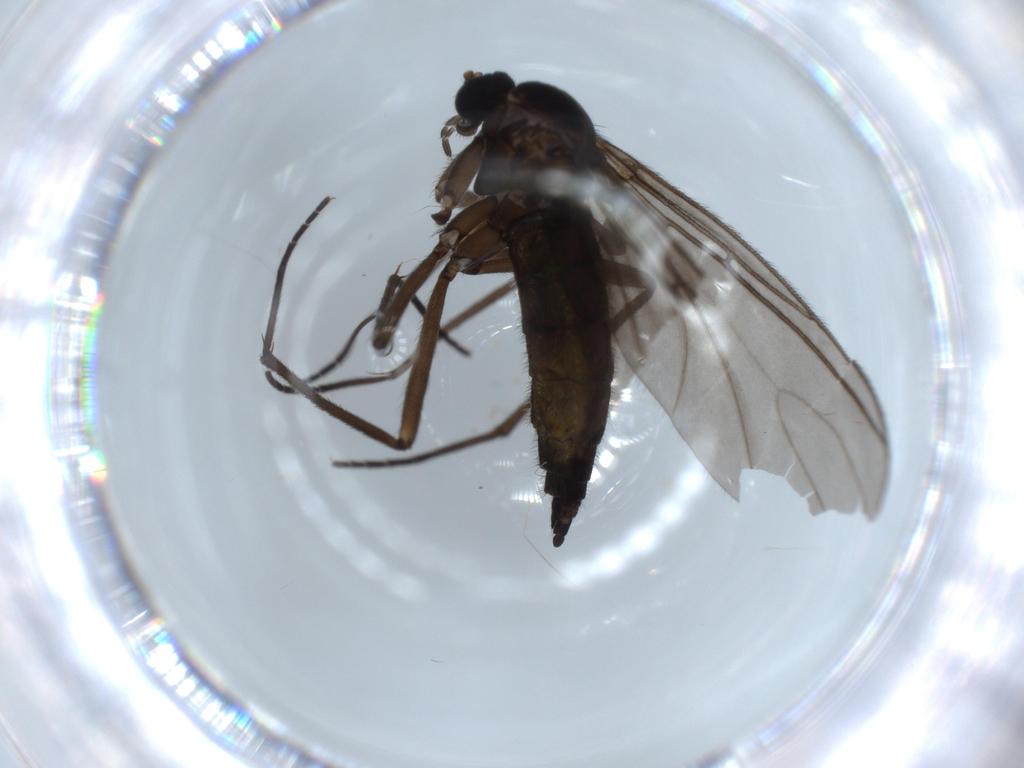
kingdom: Animalia
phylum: Arthropoda
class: Insecta
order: Diptera
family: Sciaridae
